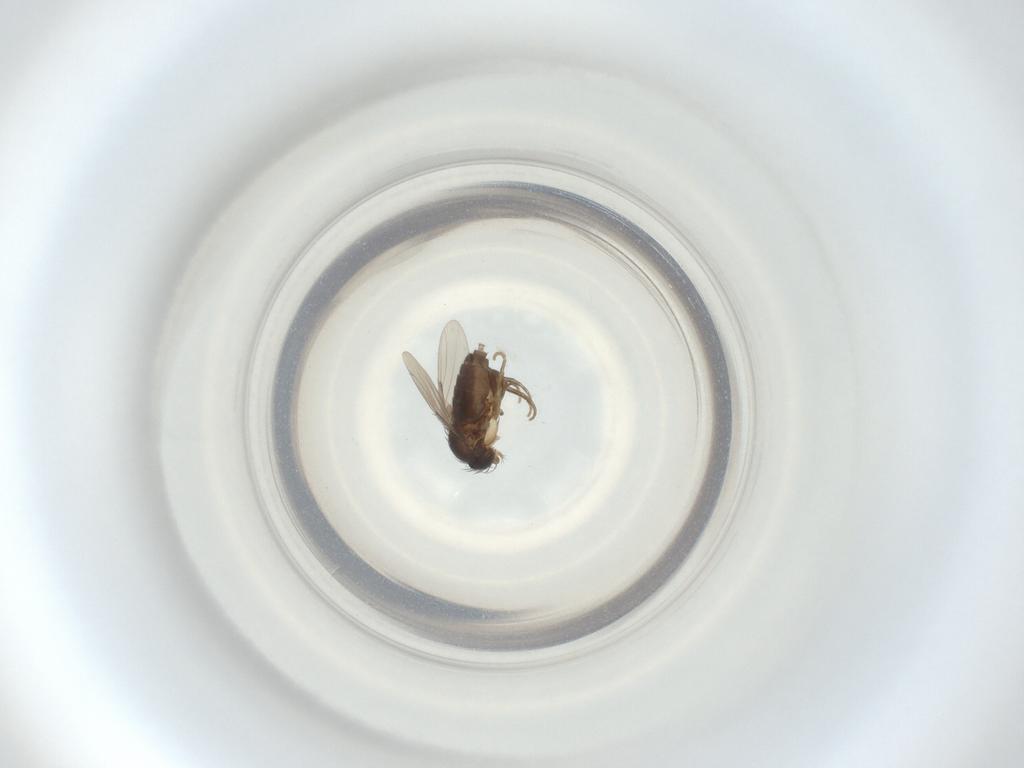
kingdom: Animalia
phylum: Arthropoda
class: Insecta
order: Diptera
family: Phoridae
